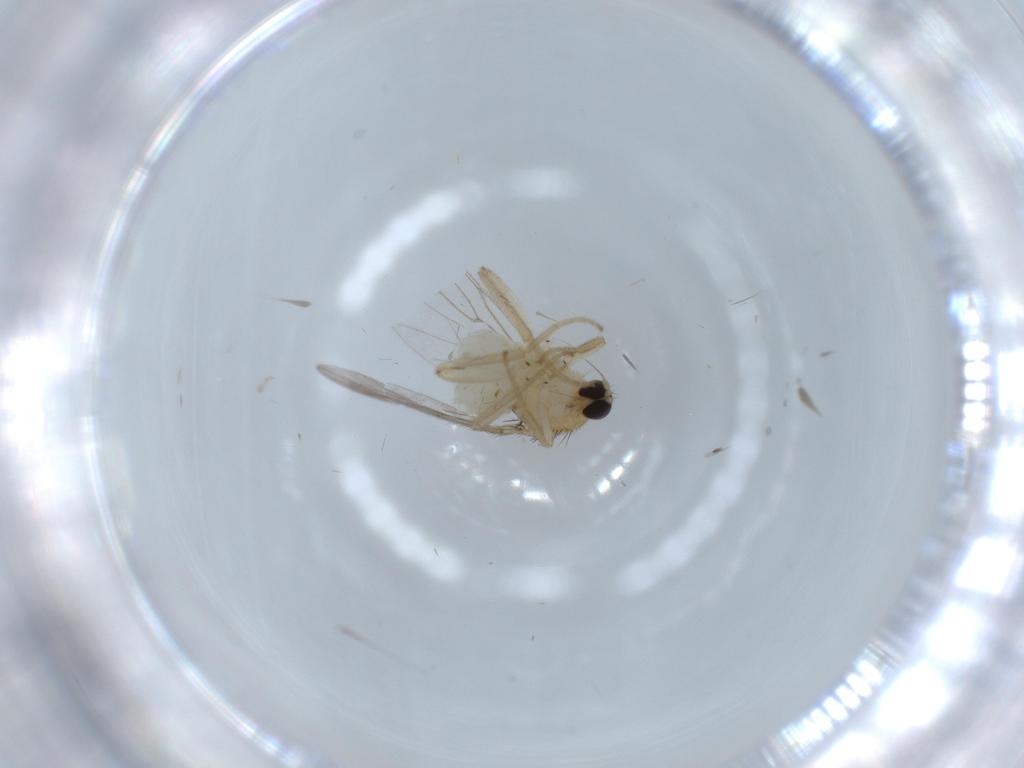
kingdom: Animalia
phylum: Arthropoda
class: Insecta
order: Diptera
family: Hybotidae
